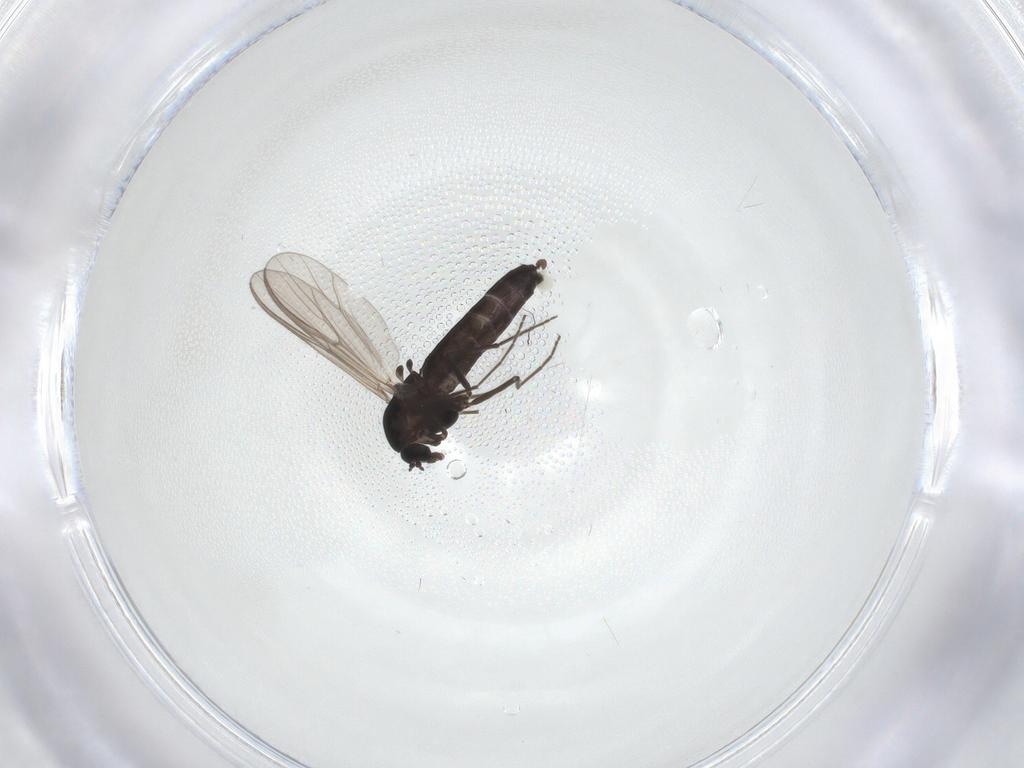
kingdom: Animalia
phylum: Arthropoda
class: Insecta
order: Diptera
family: Chironomidae
